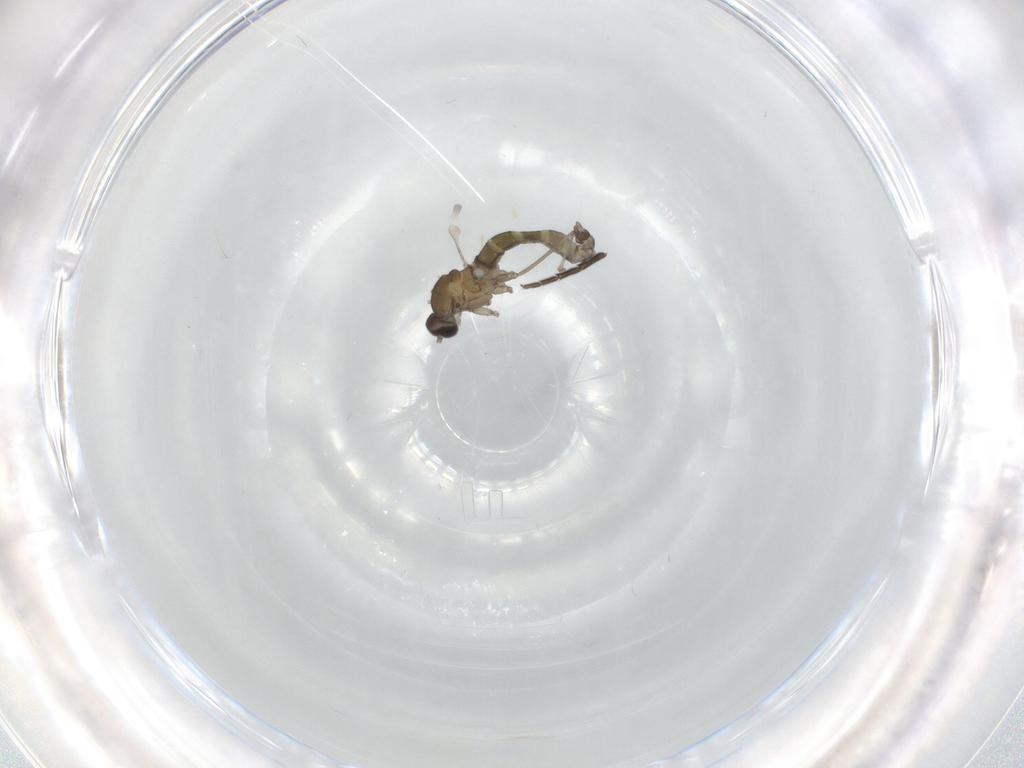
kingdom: Animalia
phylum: Arthropoda
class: Insecta
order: Diptera
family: Cecidomyiidae
